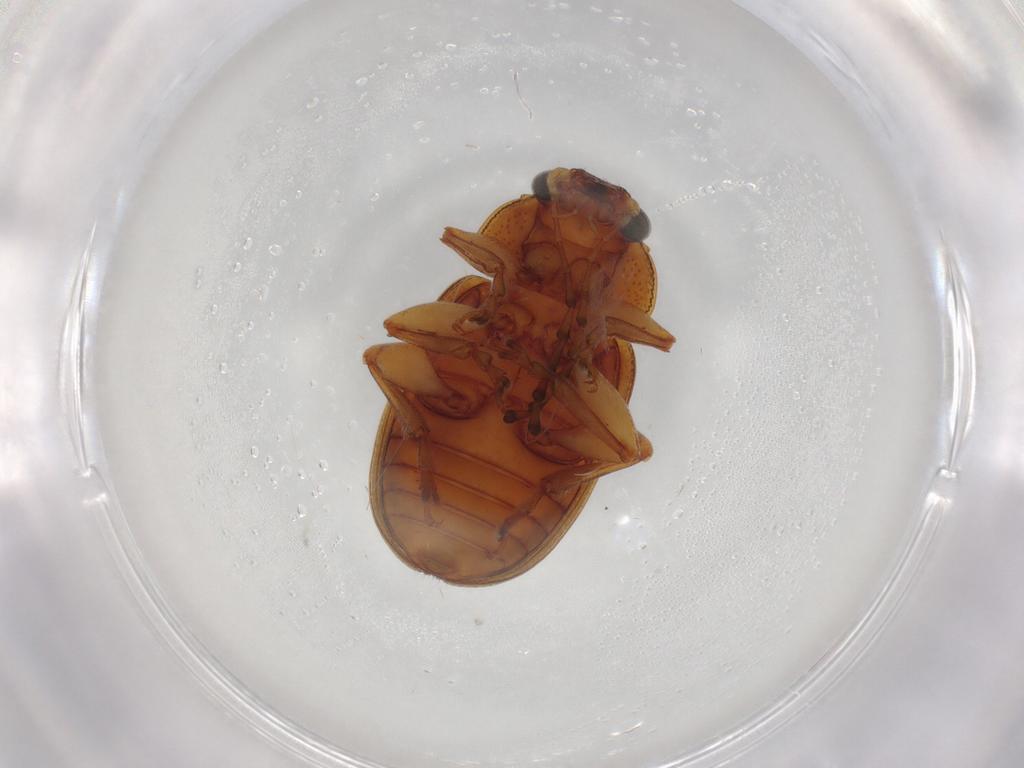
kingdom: Animalia
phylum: Arthropoda
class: Insecta
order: Coleoptera
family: Chrysomelidae
